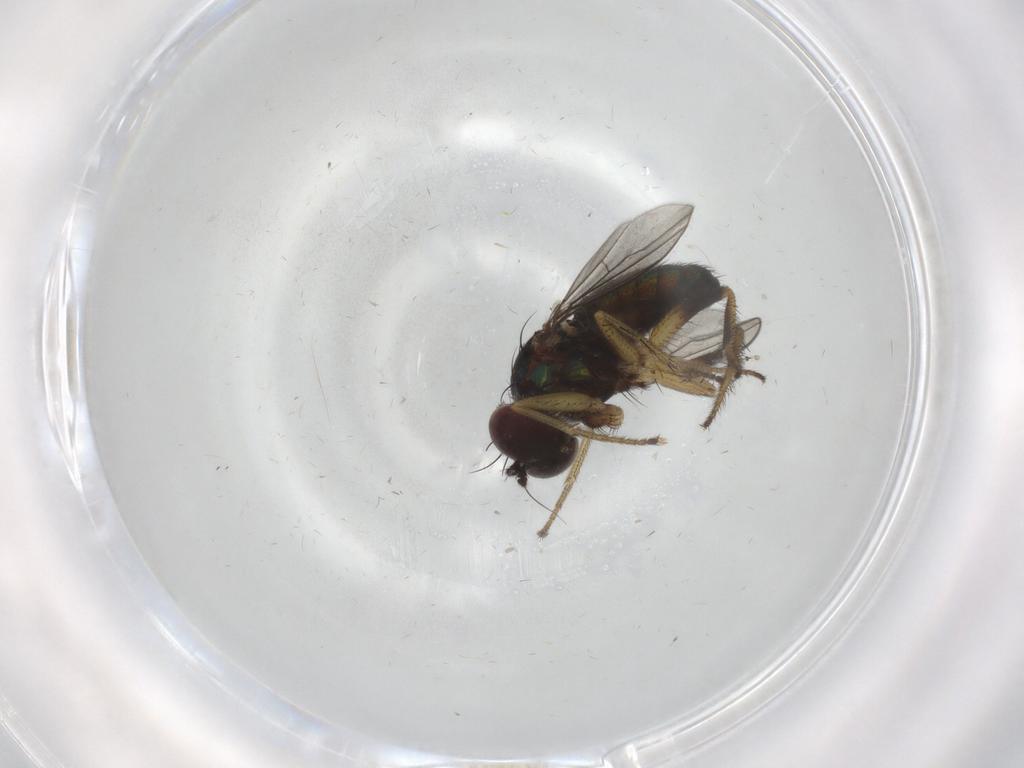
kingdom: Animalia
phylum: Arthropoda
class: Insecta
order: Diptera
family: Dolichopodidae
